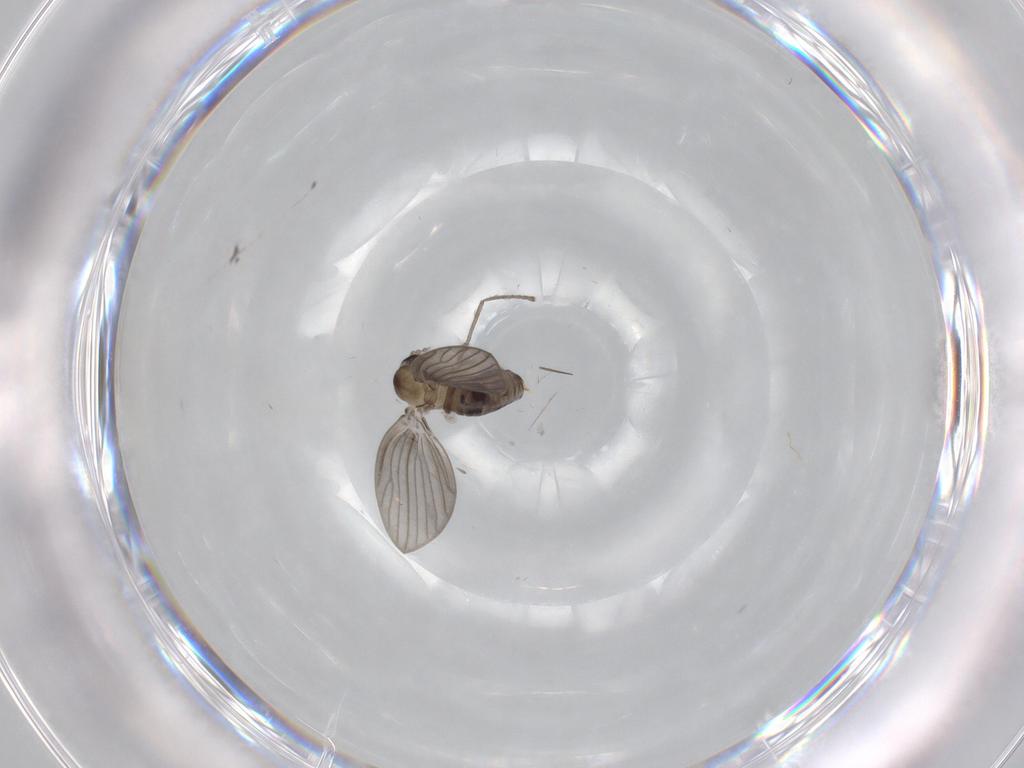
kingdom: Animalia
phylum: Arthropoda
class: Insecta
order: Diptera
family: Psychodidae
